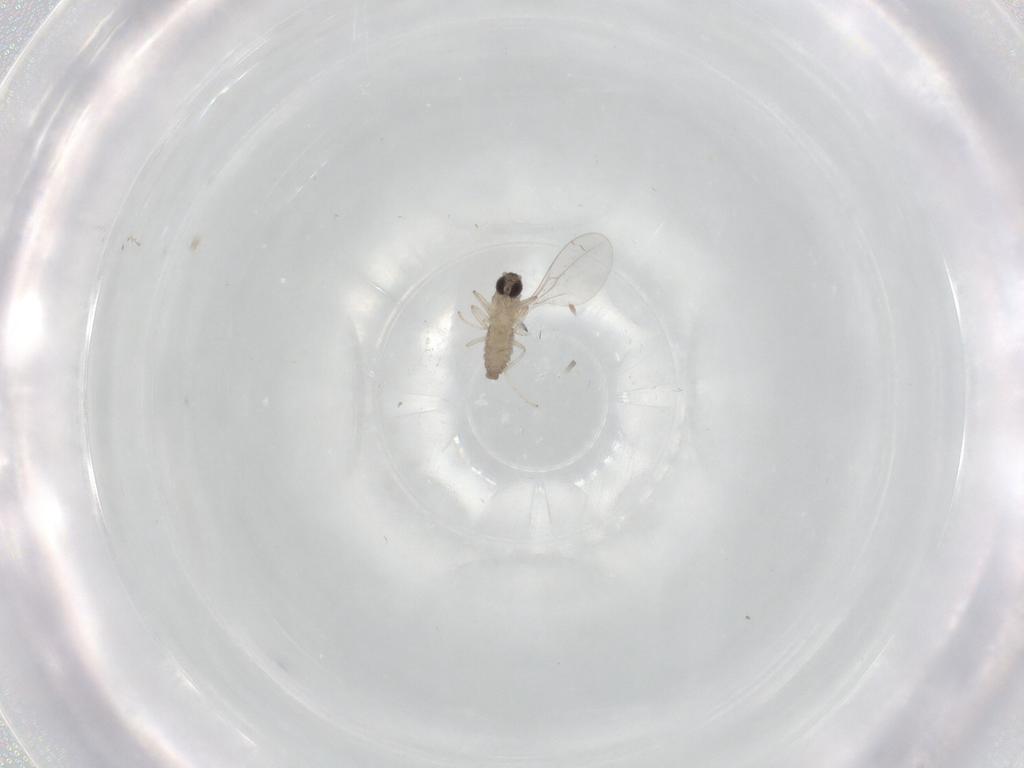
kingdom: Animalia
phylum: Arthropoda
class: Insecta
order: Diptera
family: Cecidomyiidae
